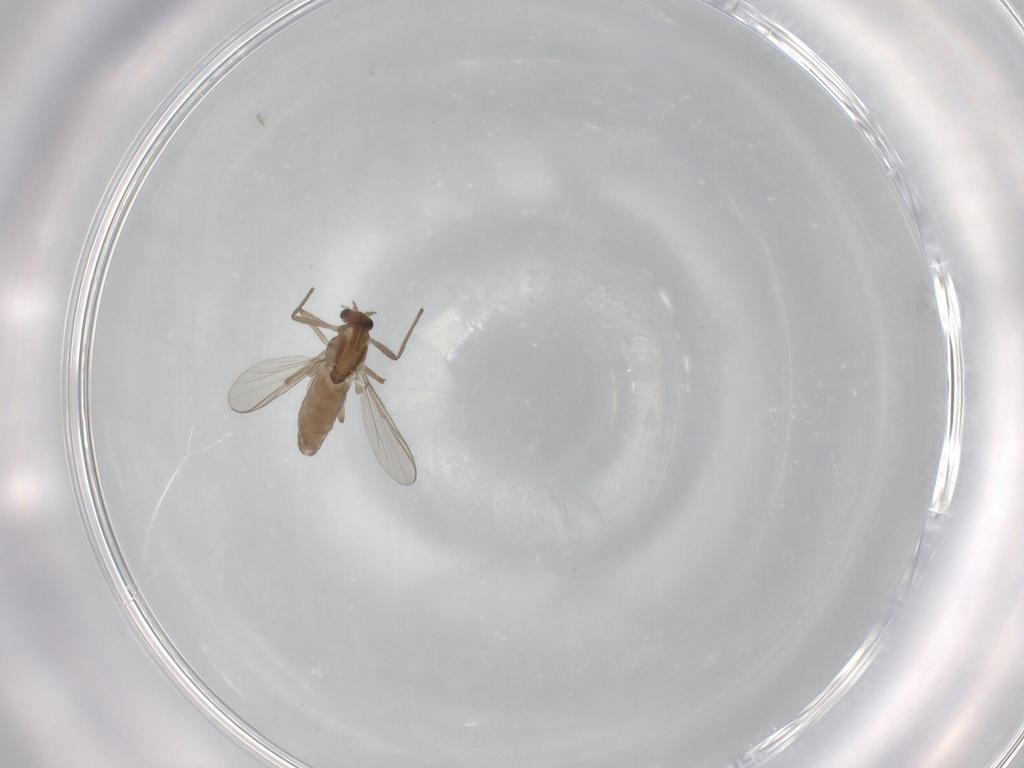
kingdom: Animalia
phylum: Arthropoda
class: Insecta
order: Diptera
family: Chironomidae
